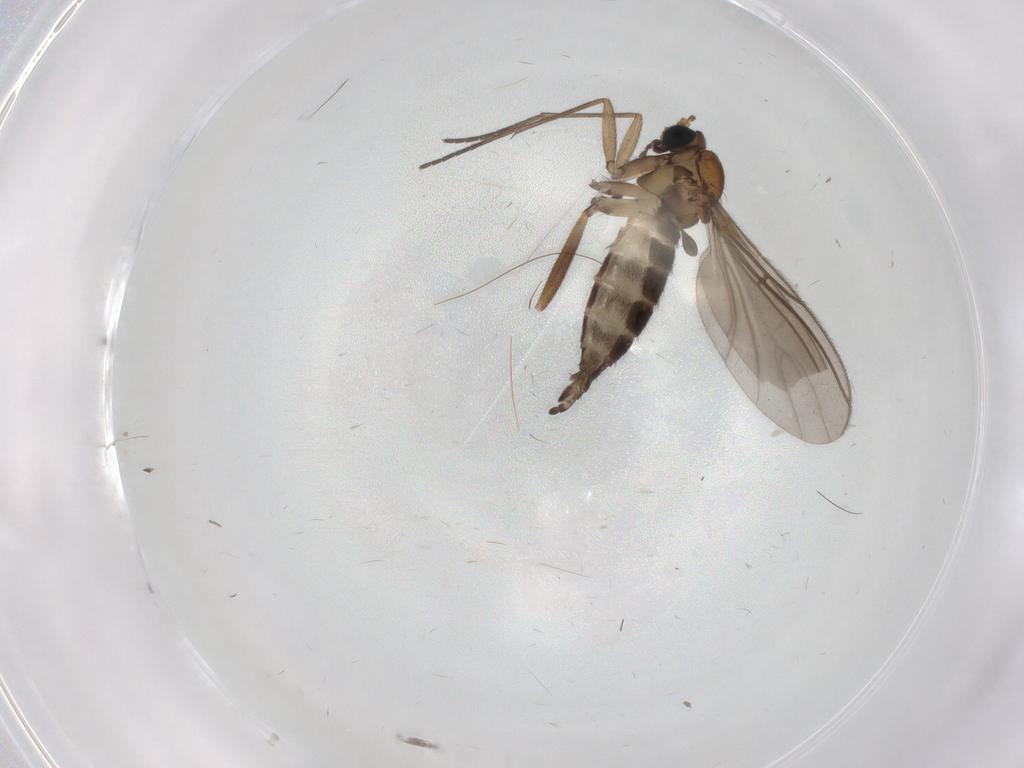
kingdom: Animalia
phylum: Arthropoda
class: Insecta
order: Diptera
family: Sciaridae
